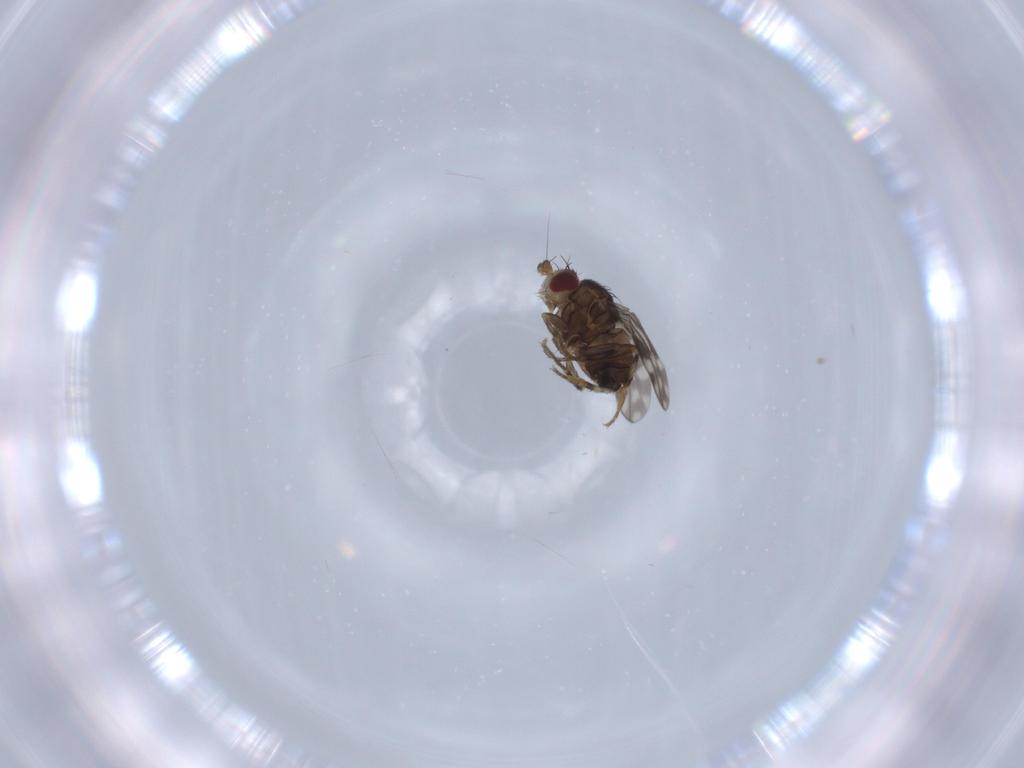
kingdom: Animalia
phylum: Arthropoda
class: Insecta
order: Diptera
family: Sphaeroceridae
